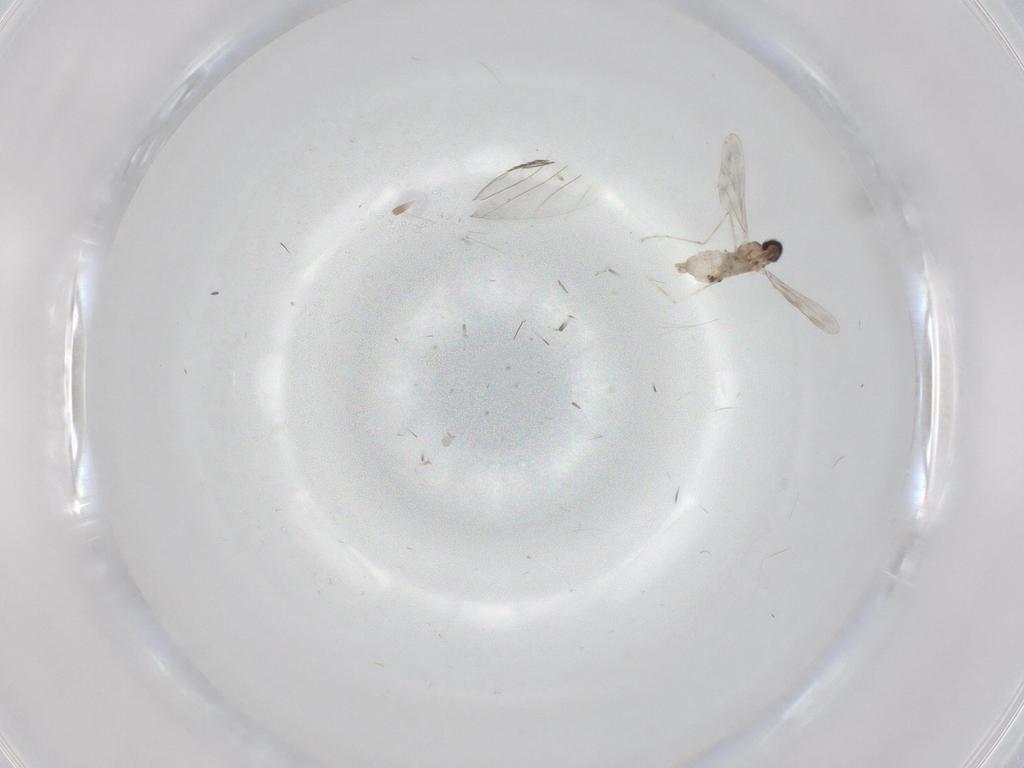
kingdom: Animalia
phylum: Arthropoda
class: Insecta
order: Diptera
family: Cecidomyiidae
